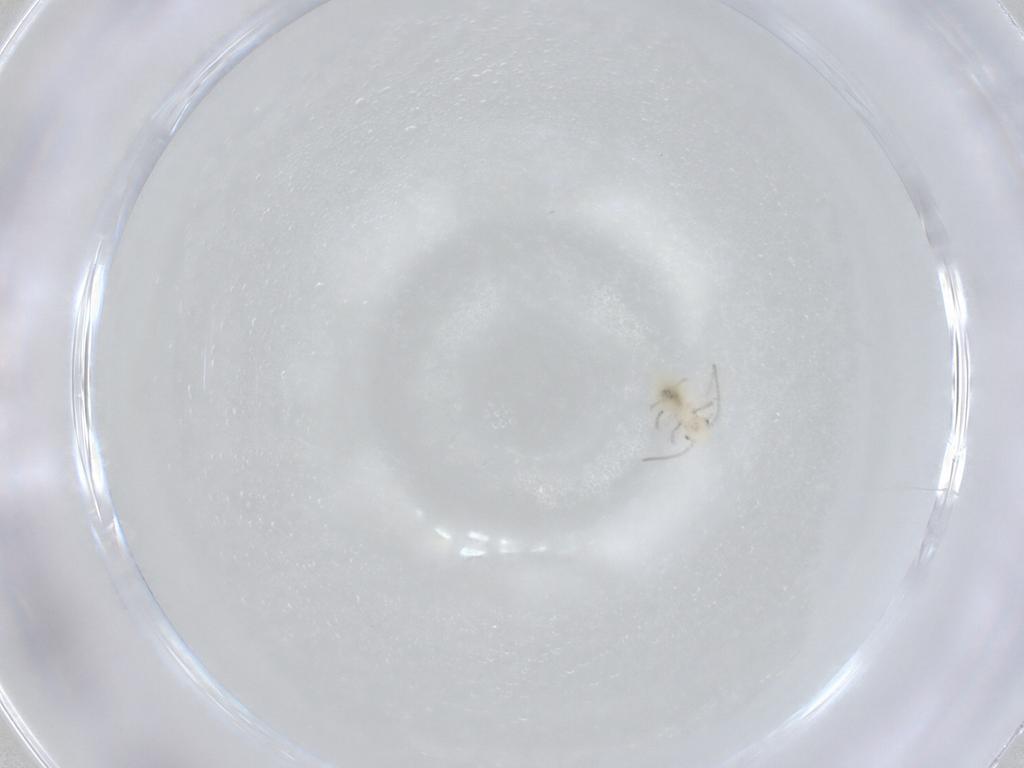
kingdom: Animalia
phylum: Arthropoda
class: Insecta
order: Psocodea
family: Caeciliusidae
